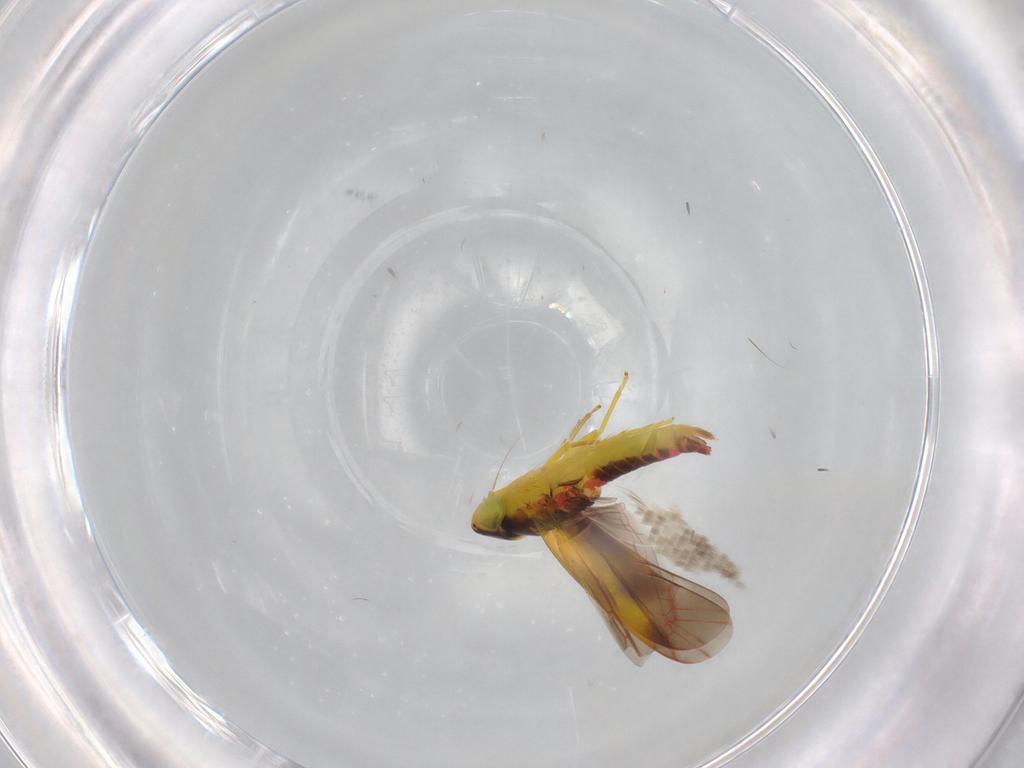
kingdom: Animalia
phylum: Arthropoda
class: Insecta
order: Hemiptera
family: Cicadellidae
